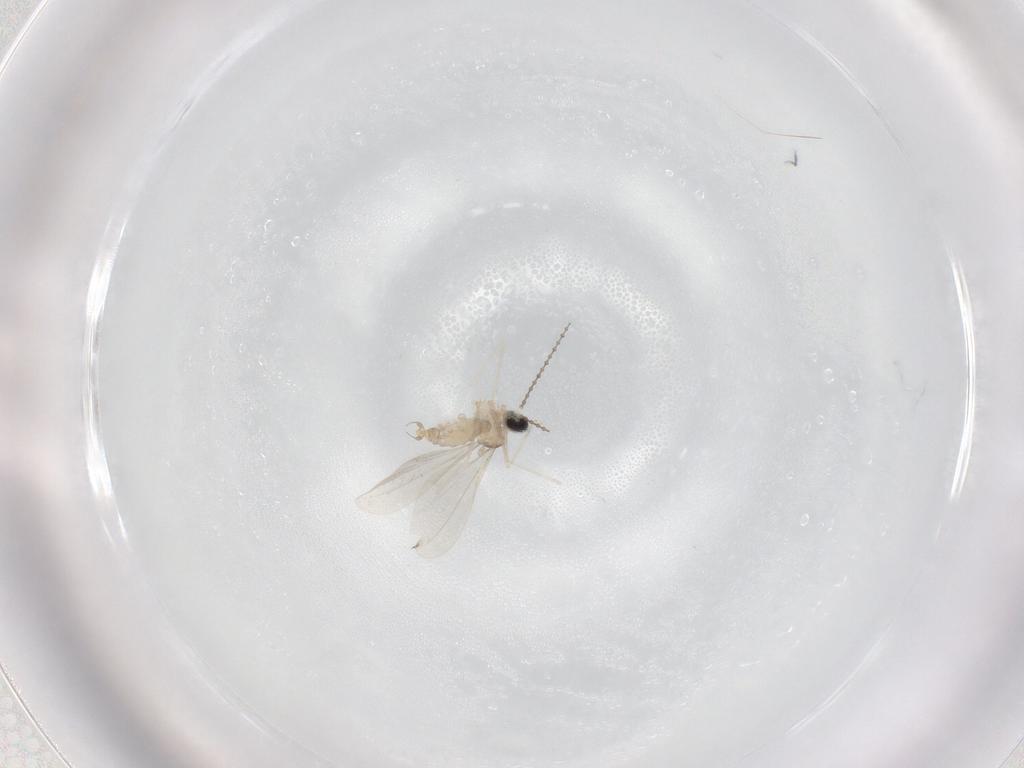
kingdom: Animalia
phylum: Arthropoda
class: Insecta
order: Diptera
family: Cecidomyiidae
